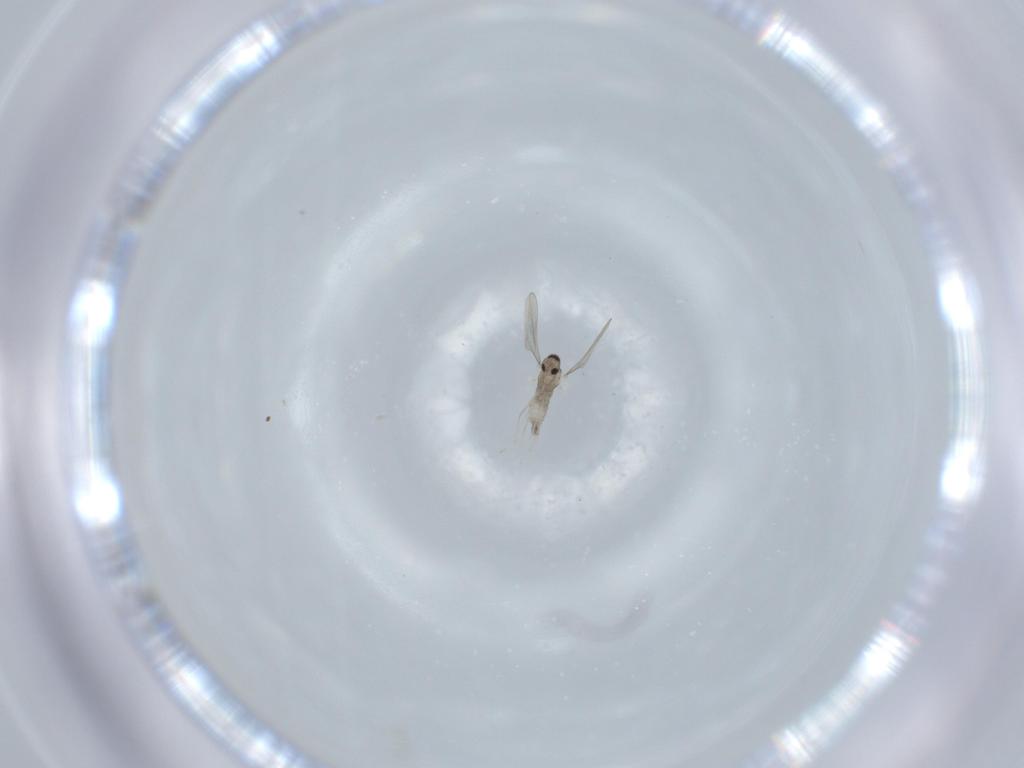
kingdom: Animalia
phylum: Arthropoda
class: Insecta
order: Diptera
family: Cecidomyiidae
